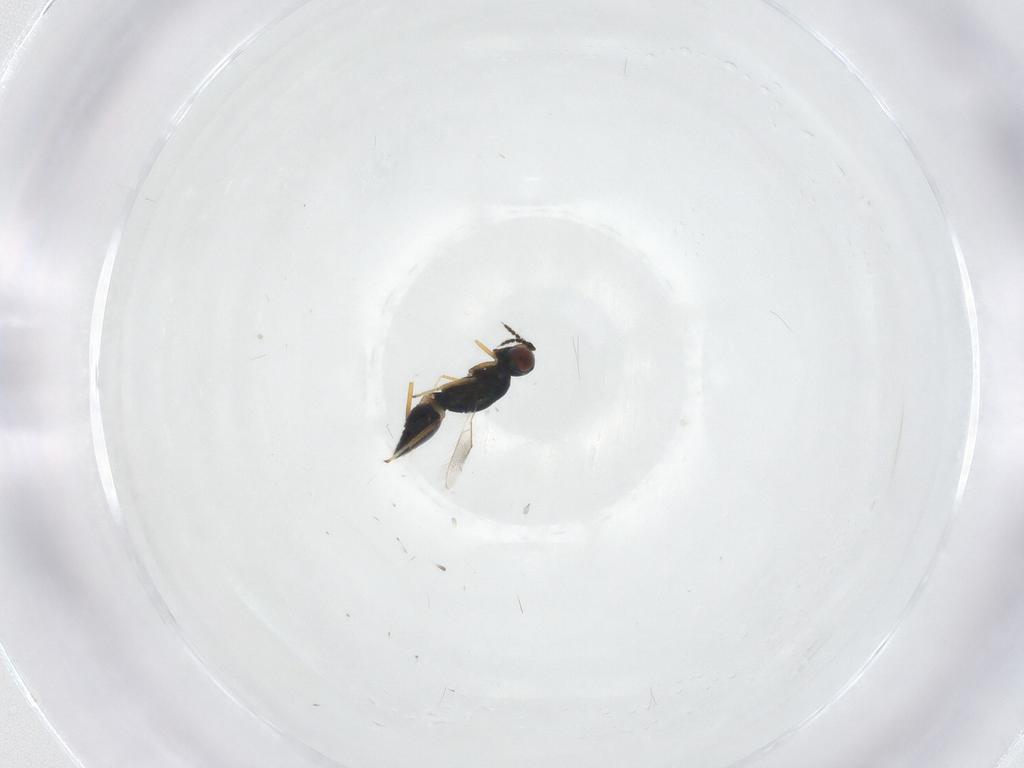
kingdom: Animalia
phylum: Arthropoda
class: Insecta
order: Hymenoptera
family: Eulophidae
